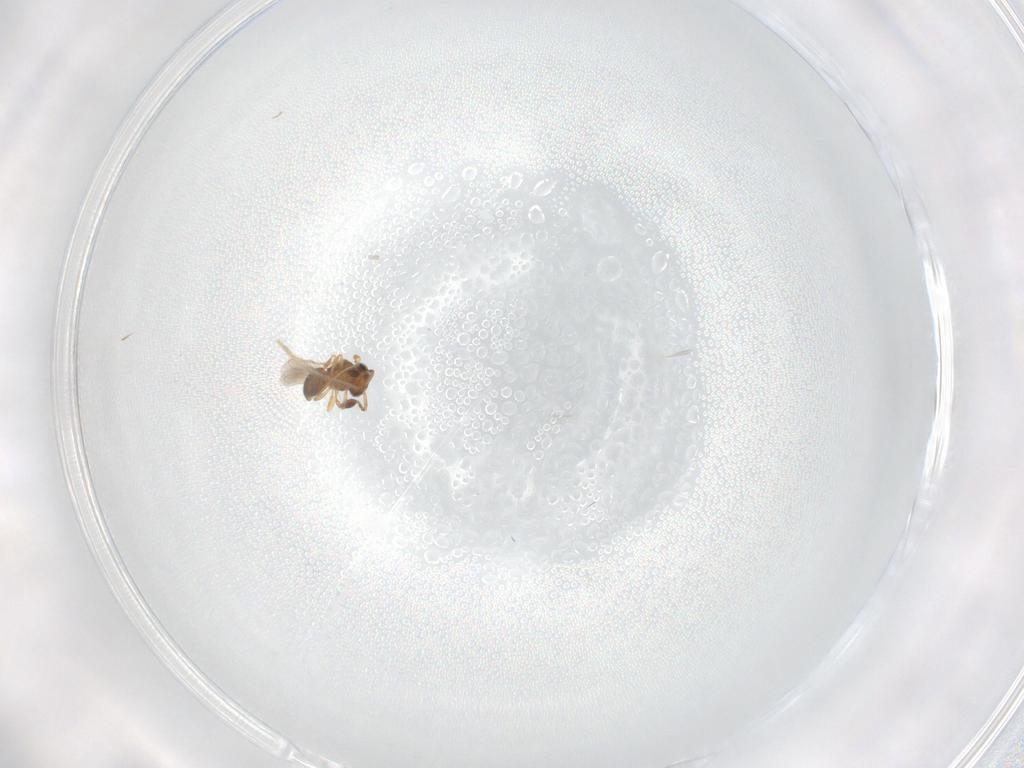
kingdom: Animalia
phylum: Arthropoda
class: Insecta
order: Hymenoptera
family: Scelionidae
